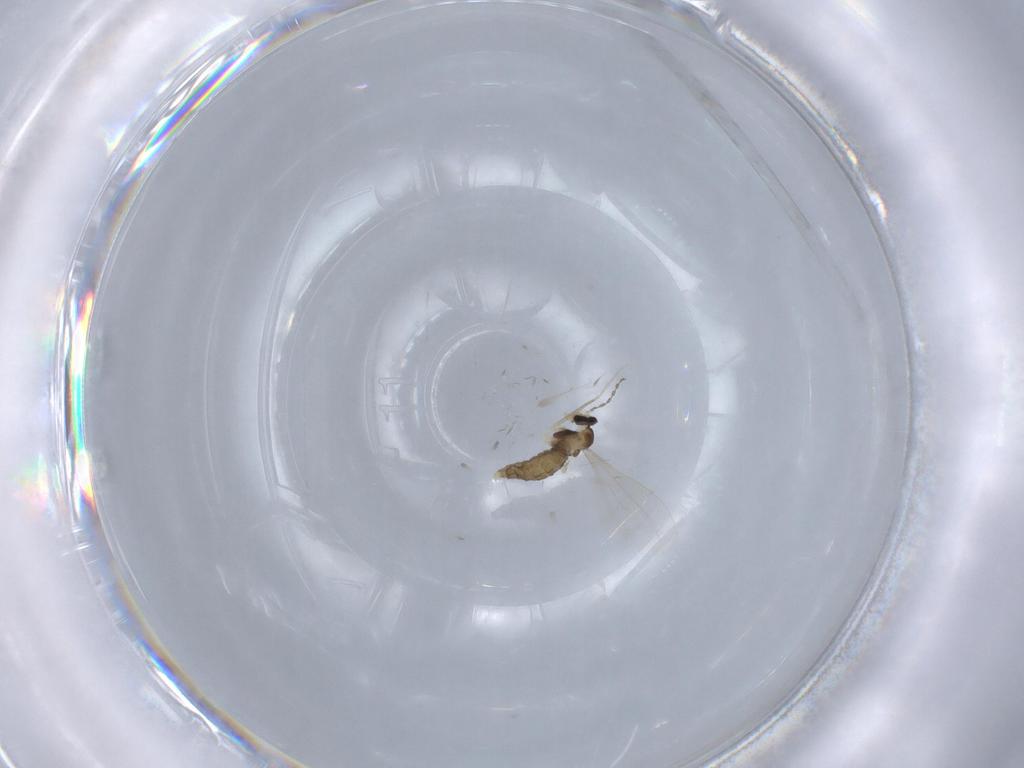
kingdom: Animalia
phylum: Arthropoda
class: Insecta
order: Diptera
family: Cecidomyiidae
